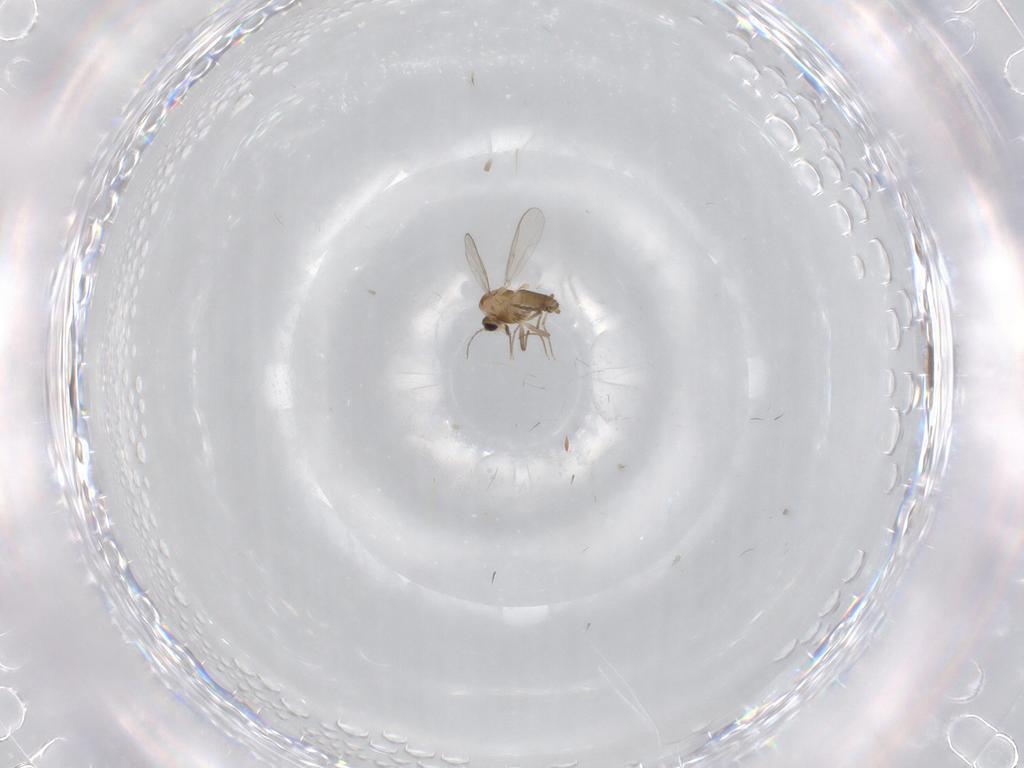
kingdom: Animalia
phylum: Arthropoda
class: Insecta
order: Diptera
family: Chironomidae
